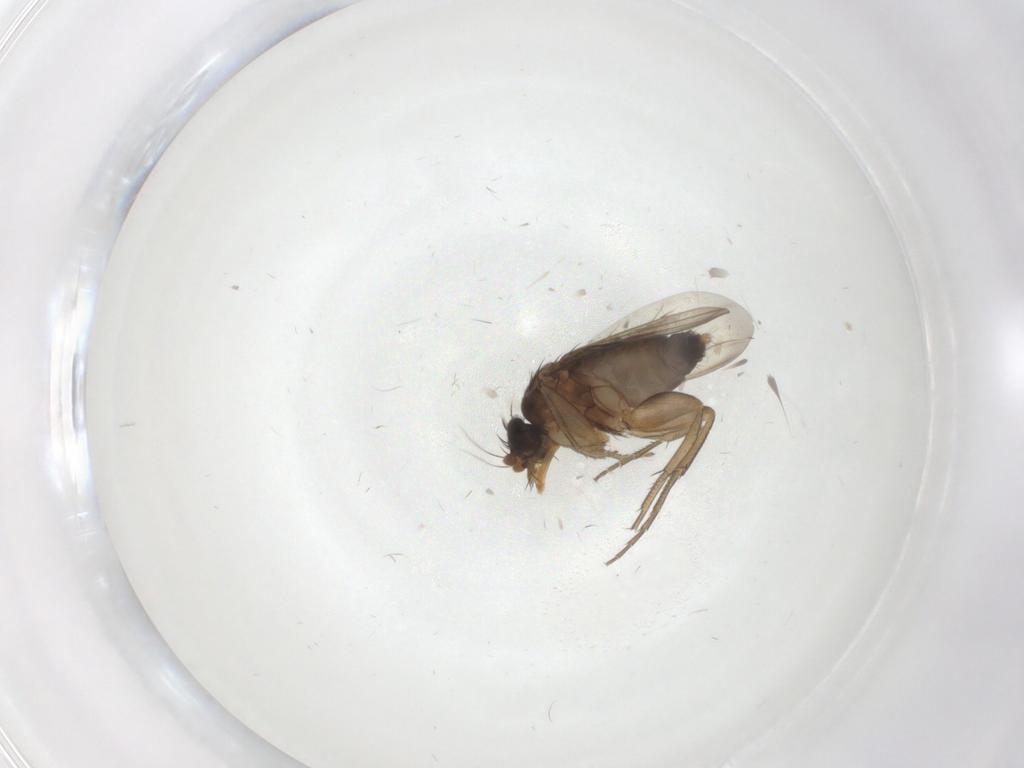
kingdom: Animalia
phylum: Arthropoda
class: Insecta
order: Diptera
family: Phoridae
